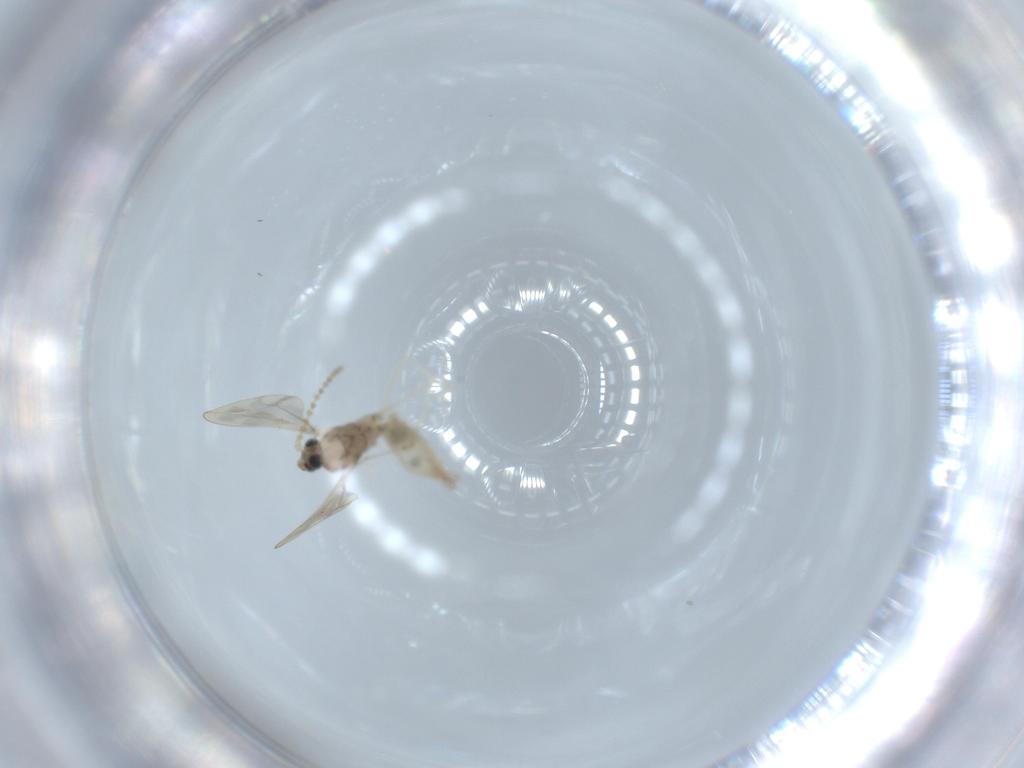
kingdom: Animalia
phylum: Arthropoda
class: Insecta
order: Diptera
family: Cecidomyiidae
